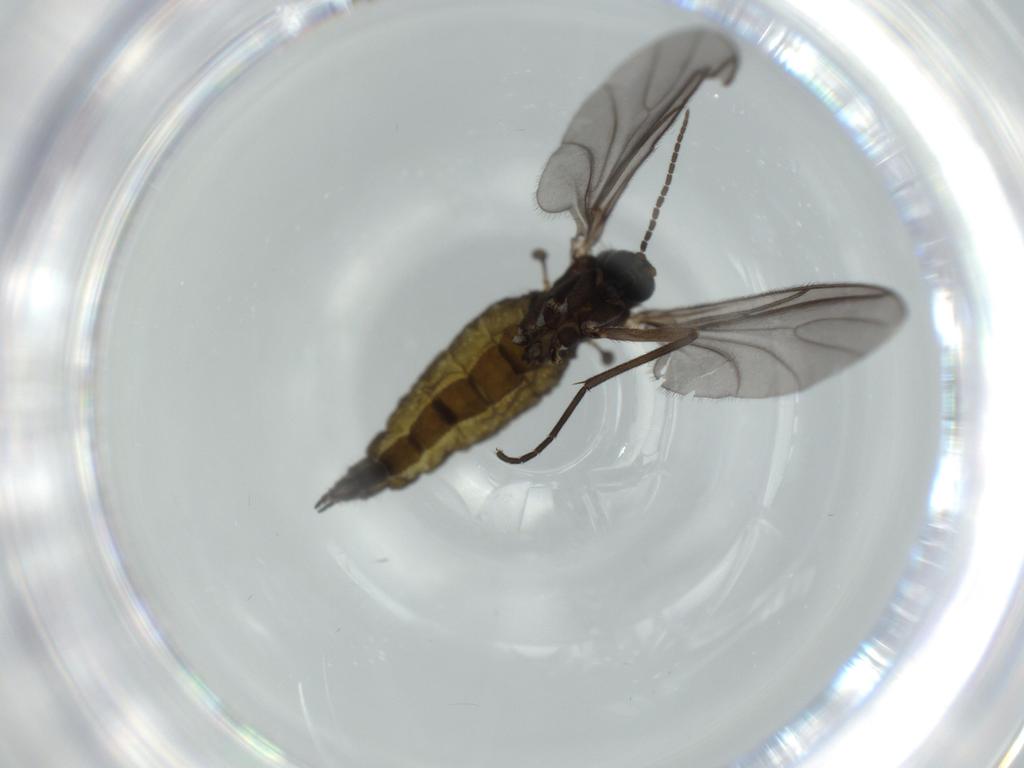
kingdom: Animalia
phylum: Arthropoda
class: Insecta
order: Diptera
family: Sciaridae
